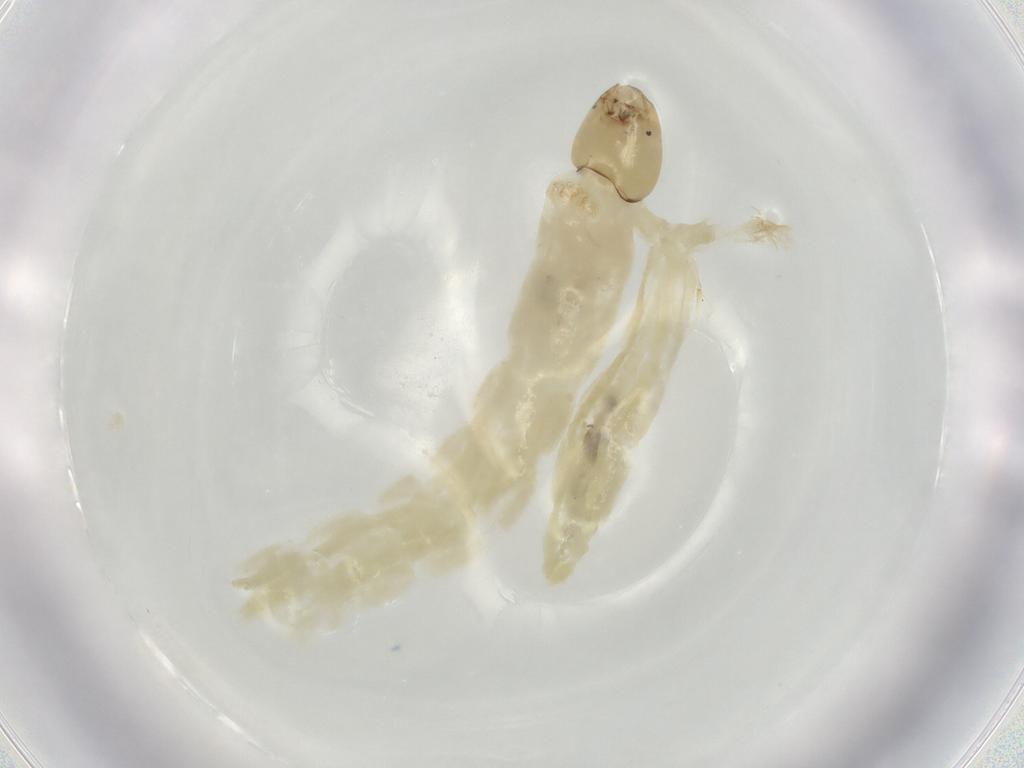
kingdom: Animalia
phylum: Arthropoda
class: Insecta
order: Diptera
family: Chironomidae
